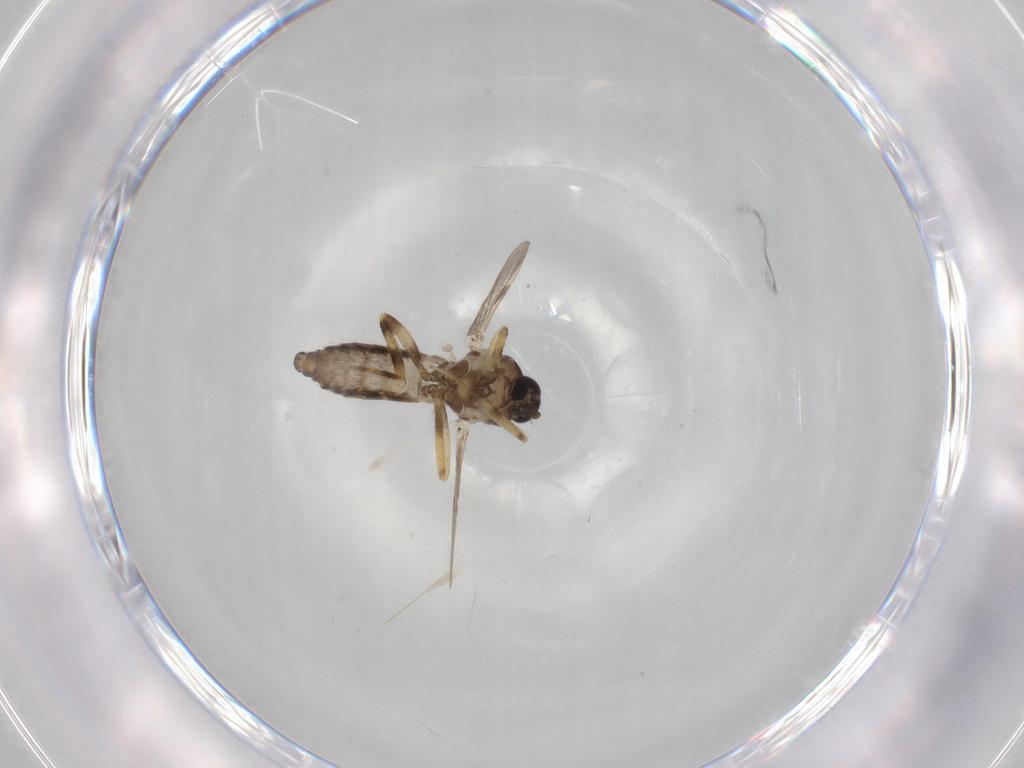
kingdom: Animalia
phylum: Arthropoda
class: Insecta
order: Diptera
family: Ceratopogonidae
